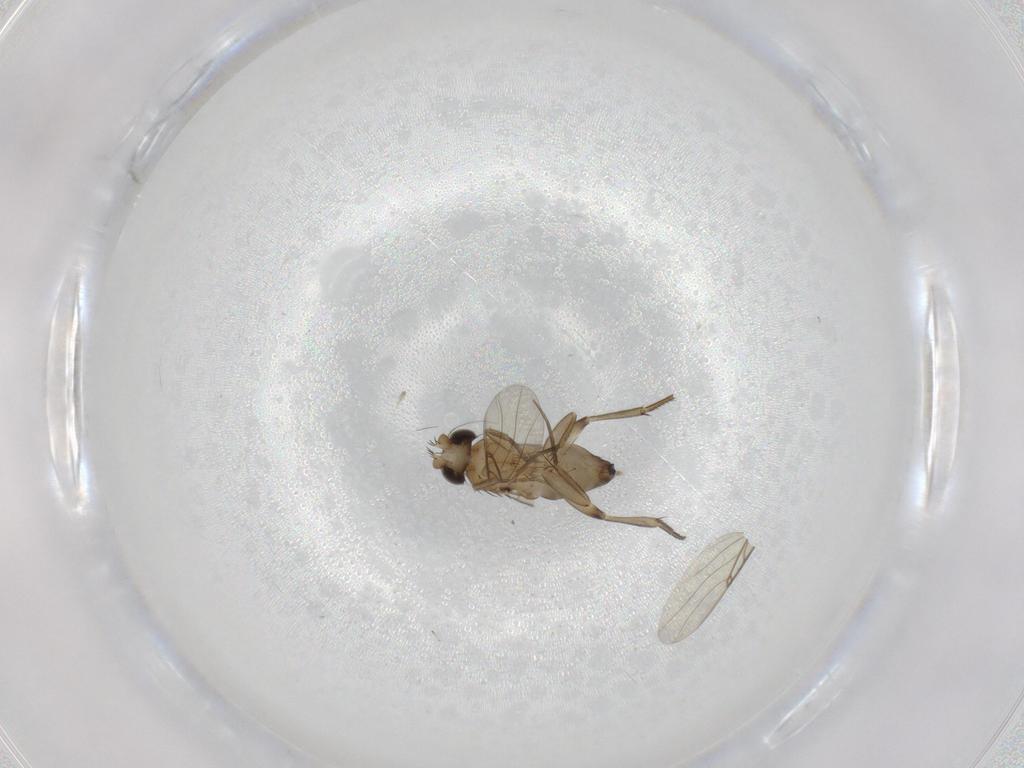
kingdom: Animalia
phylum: Arthropoda
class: Insecta
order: Diptera
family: Phoridae
